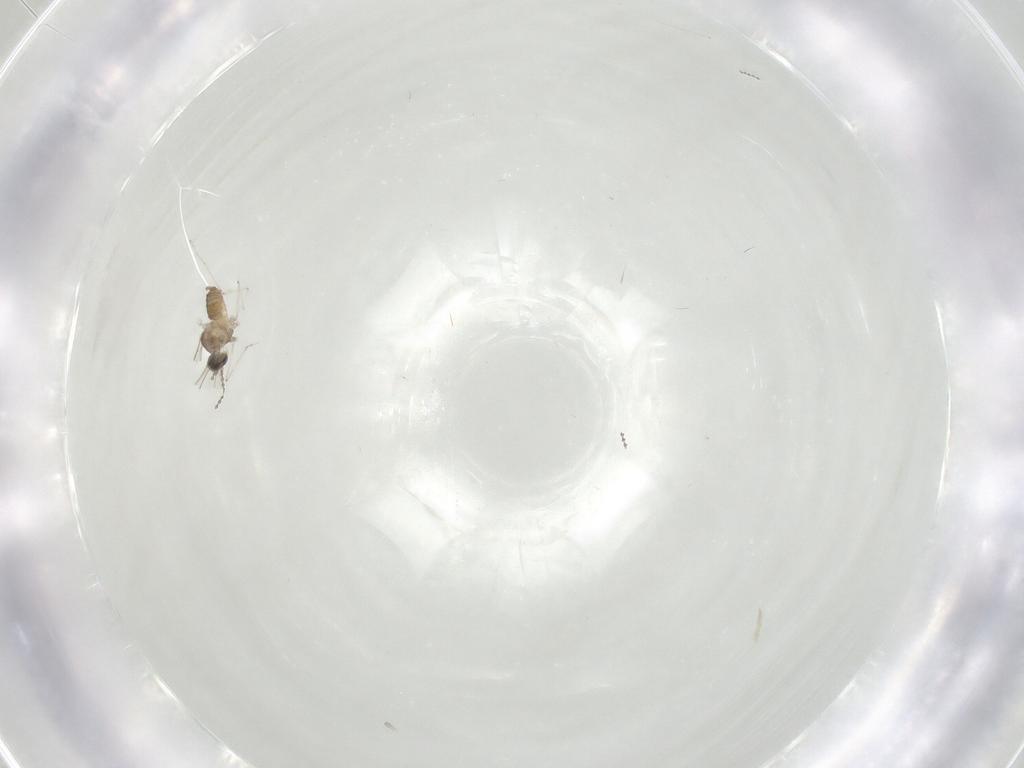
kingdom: Animalia
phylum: Arthropoda
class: Insecta
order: Diptera
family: Cecidomyiidae
